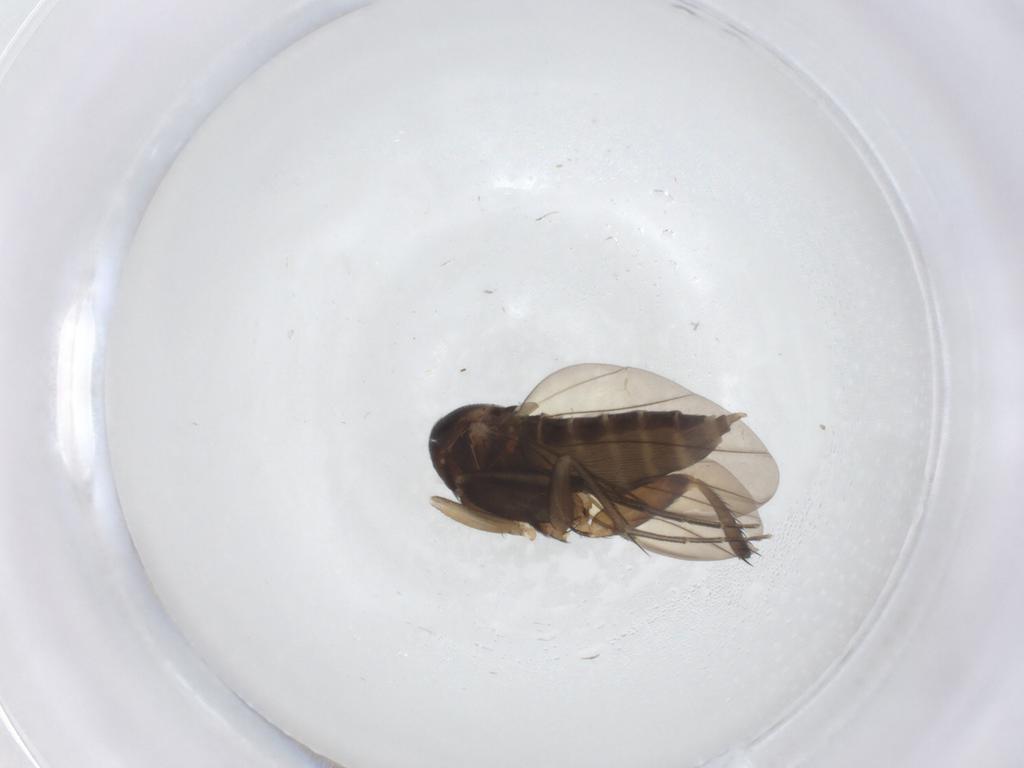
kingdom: Animalia
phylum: Arthropoda
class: Insecta
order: Diptera
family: Phoridae
